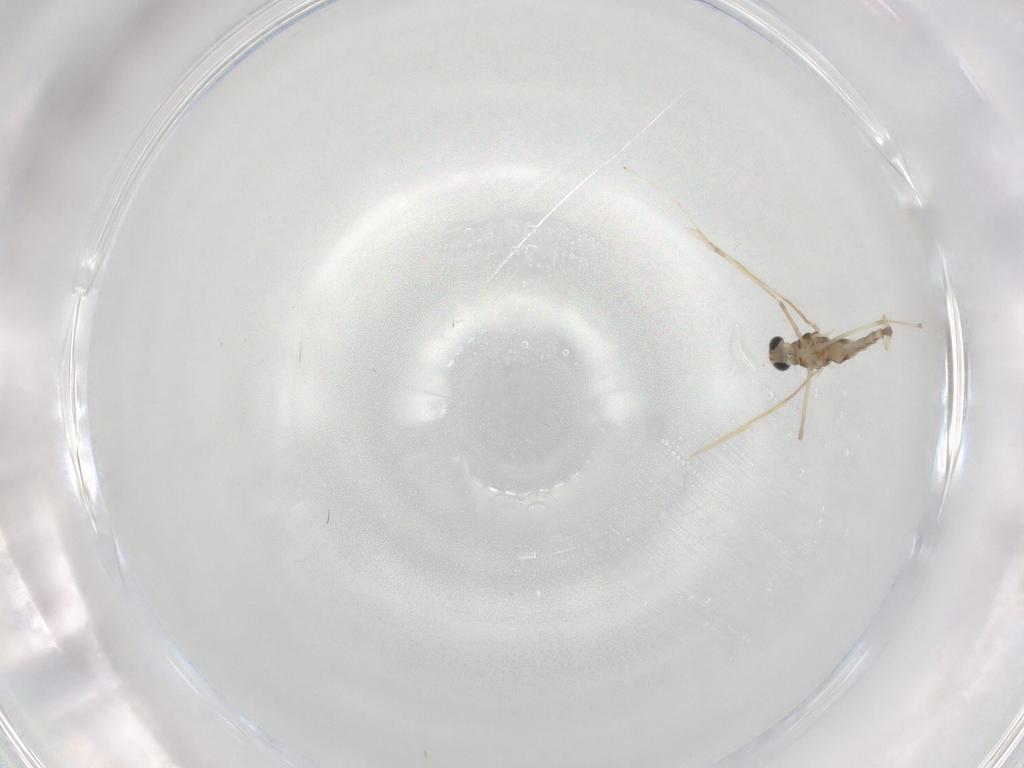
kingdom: Animalia
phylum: Arthropoda
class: Insecta
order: Diptera
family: Cecidomyiidae
